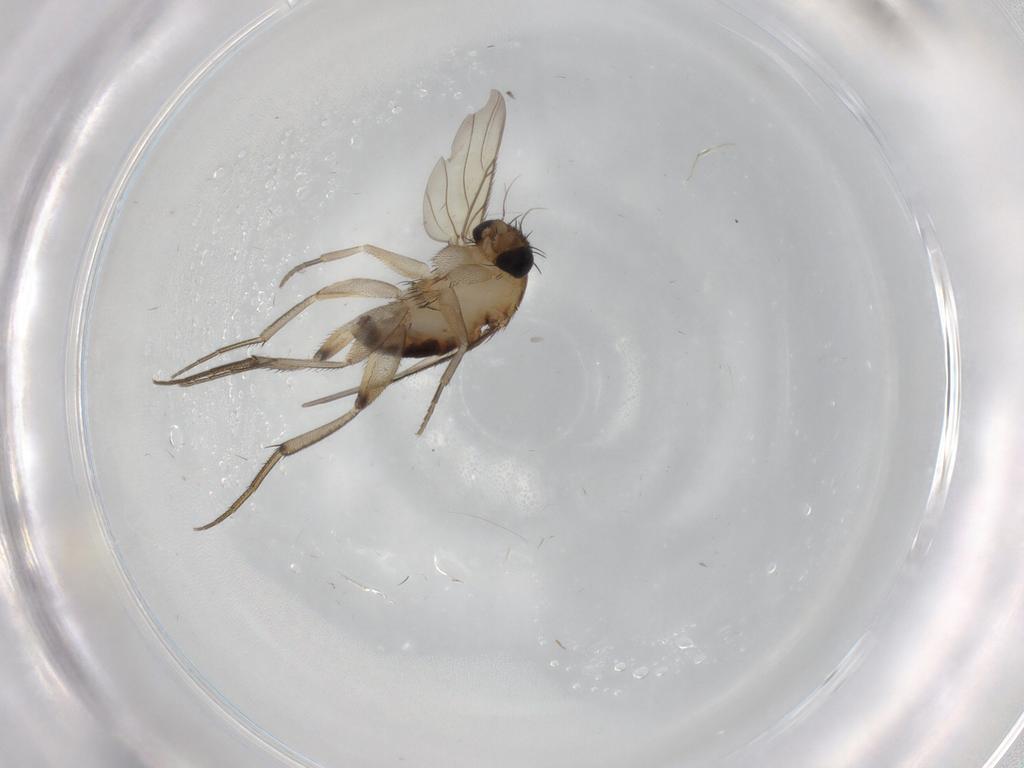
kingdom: Animalia
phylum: Arthropoda
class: Insecta
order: Diptera
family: Phoridae
